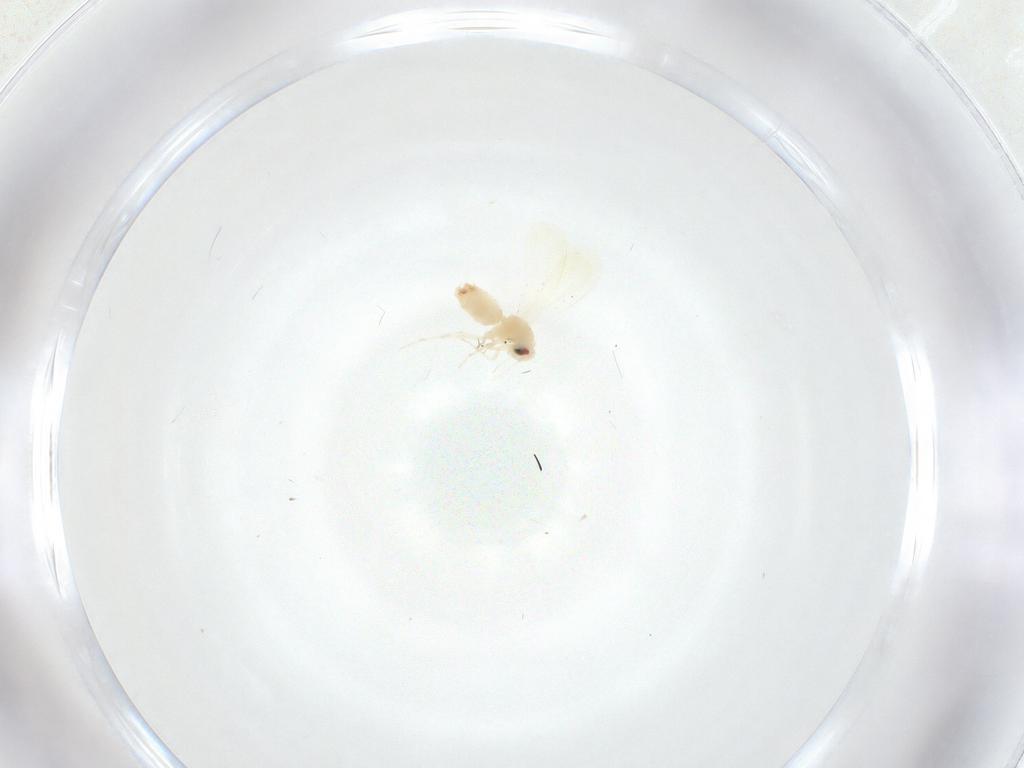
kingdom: Animalia
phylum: Arthropoda
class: Insecta
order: Hemiptera
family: Aleyrodidae
